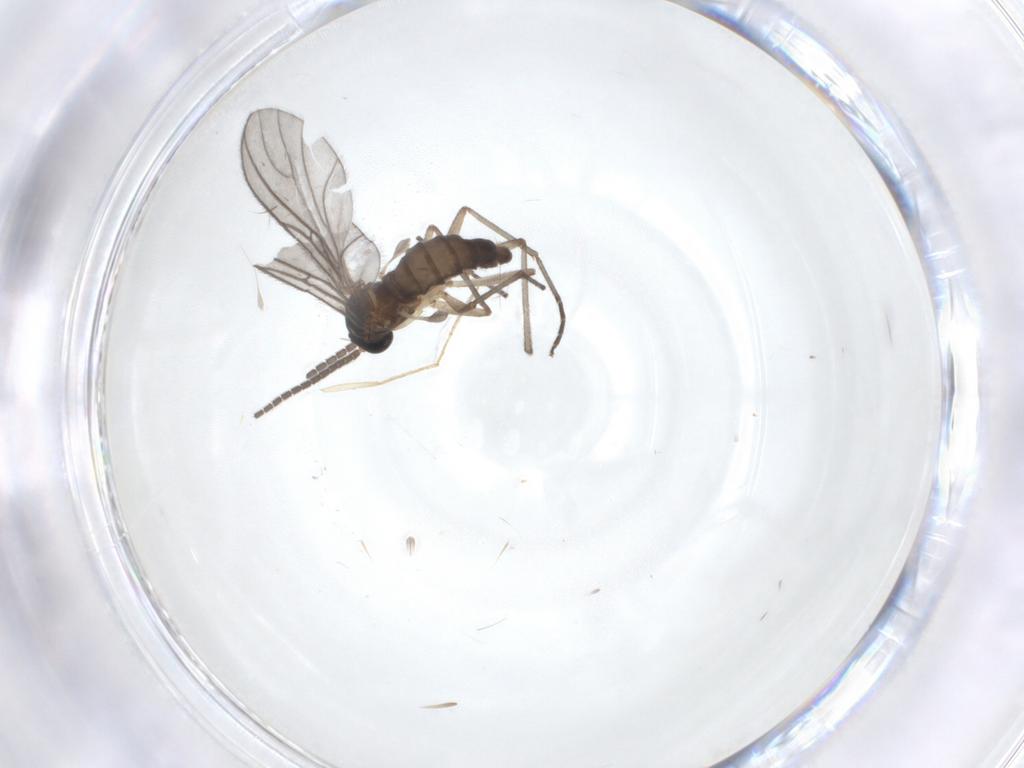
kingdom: Animalia
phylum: Arthropoda
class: Insecta
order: Diptera
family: Sciaridae
